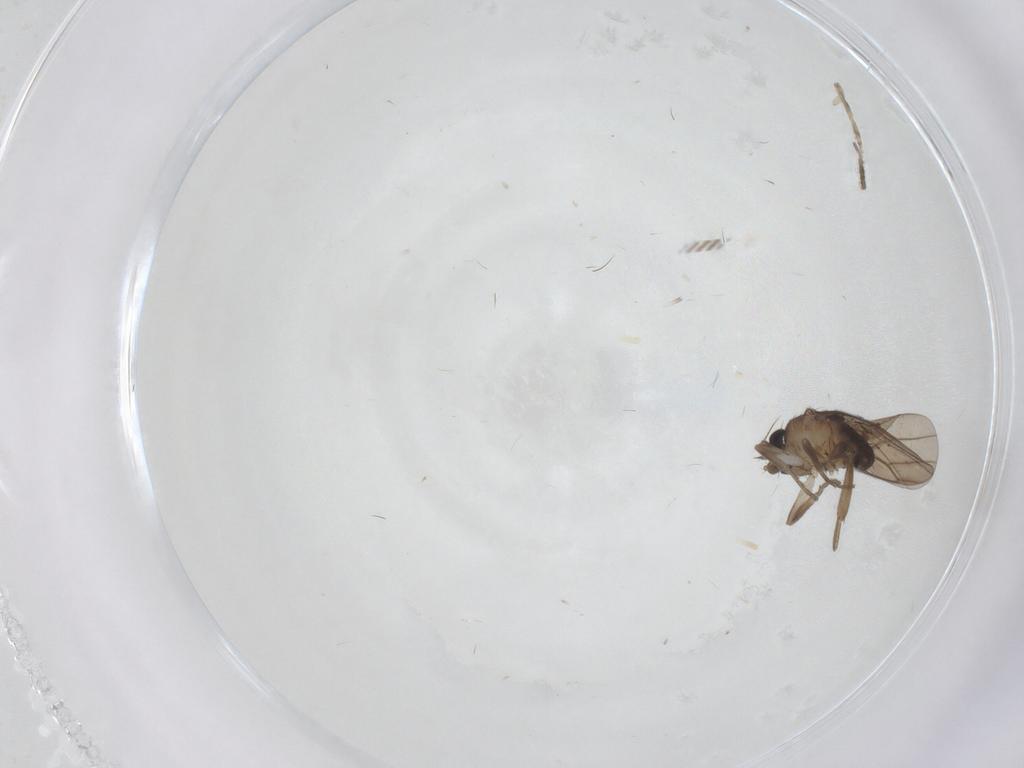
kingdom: Animalia
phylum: Arthropoda
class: Insecta
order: Diptera
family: Psychodidae
